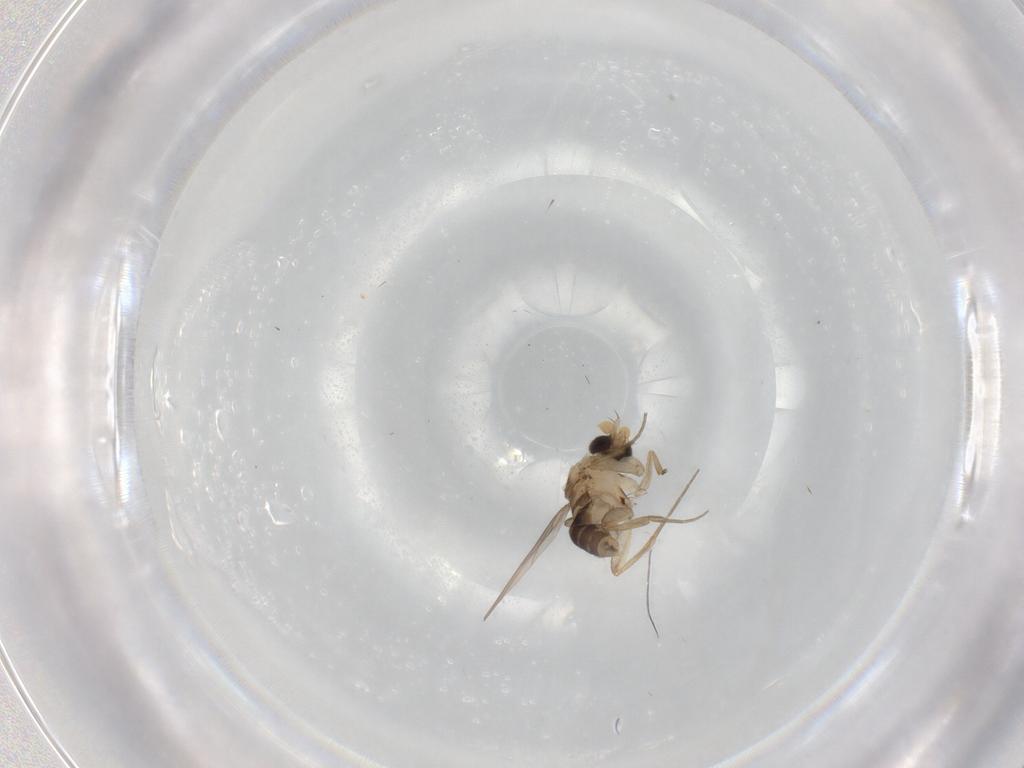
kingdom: Animalia
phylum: Arthropoda
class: Insecta
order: Diptera
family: Phoridae
